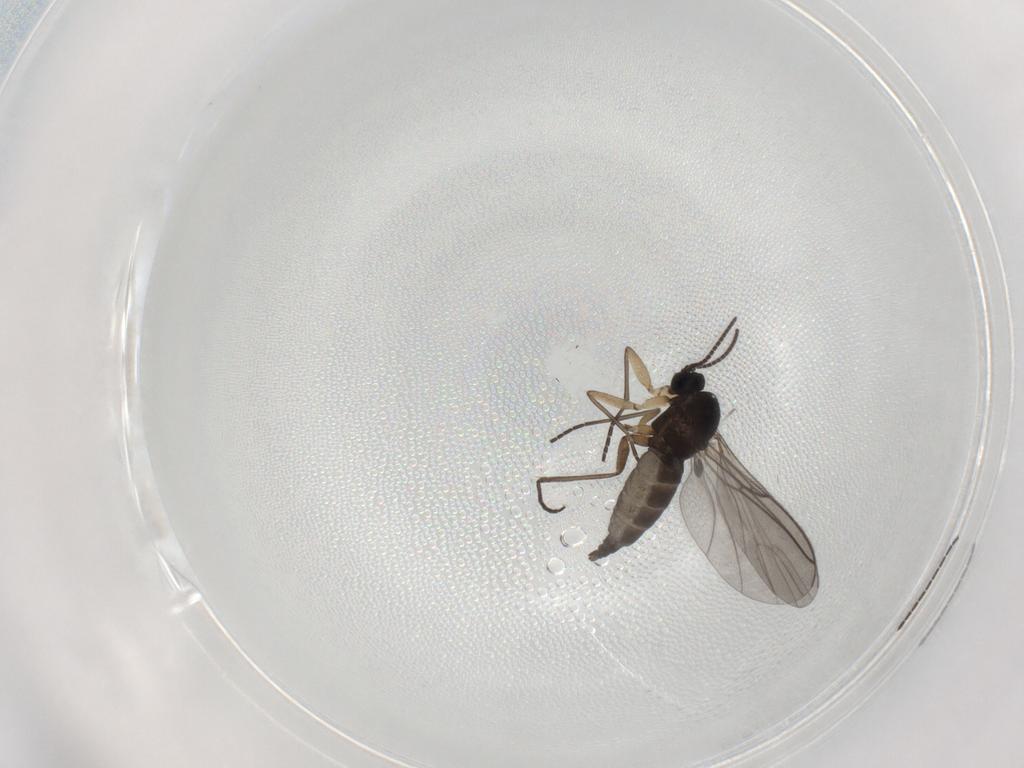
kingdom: Animalia
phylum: Arthropoda
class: Insecta
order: Diptera
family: Sciaridae
